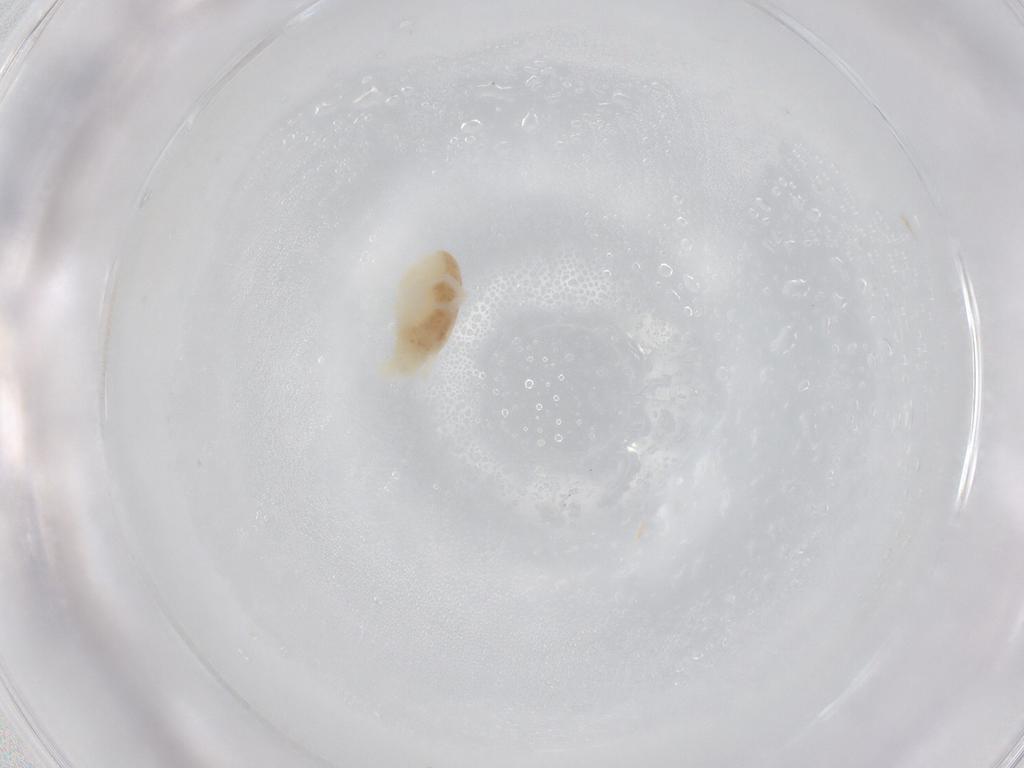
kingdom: Animalia
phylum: Arthropoda
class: Arachnida
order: Trombidiformes
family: Eupodidae
